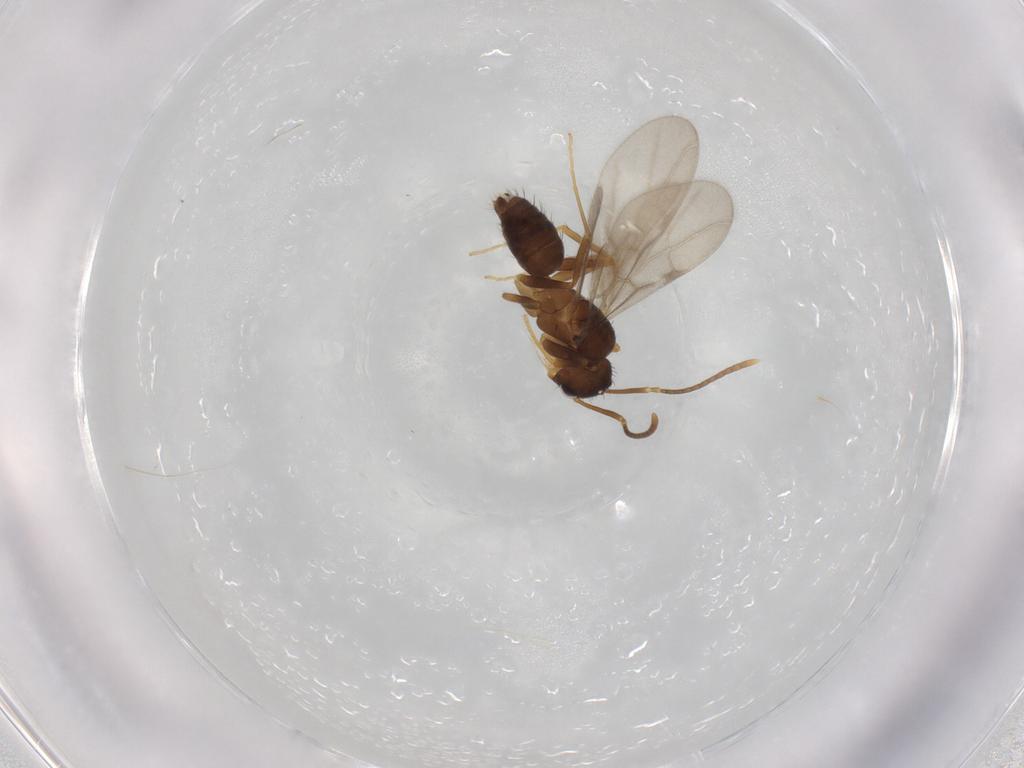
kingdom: Animalia
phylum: Arthropoda
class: Insecta
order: Hymenoptera
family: Formicidae
